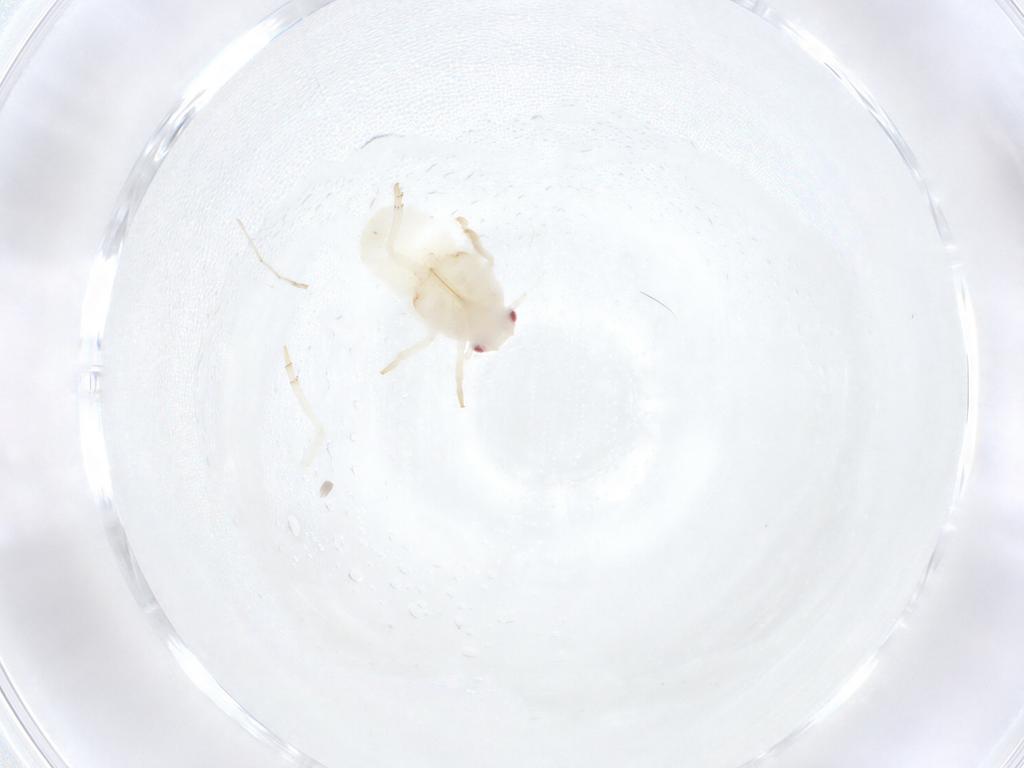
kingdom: Animalia
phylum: Arthropoda
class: Insecta
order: Hemiptera
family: Flatidae
